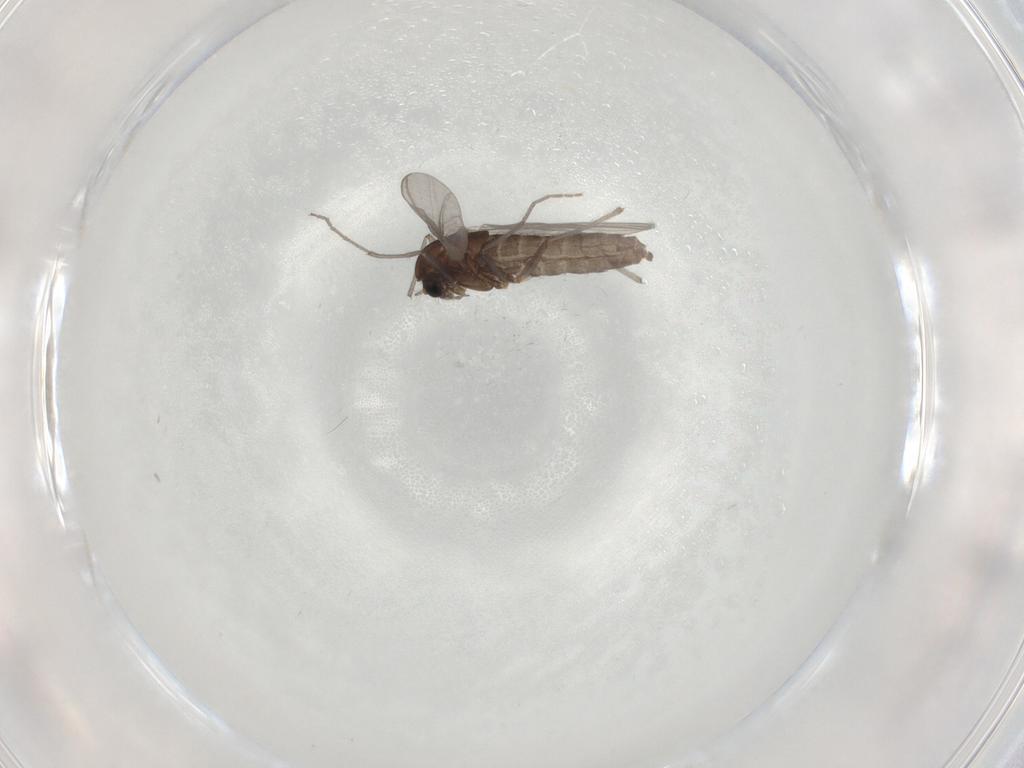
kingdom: Animalia
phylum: Arthropoda
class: Insecta
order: Diptera
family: Chironomidae
